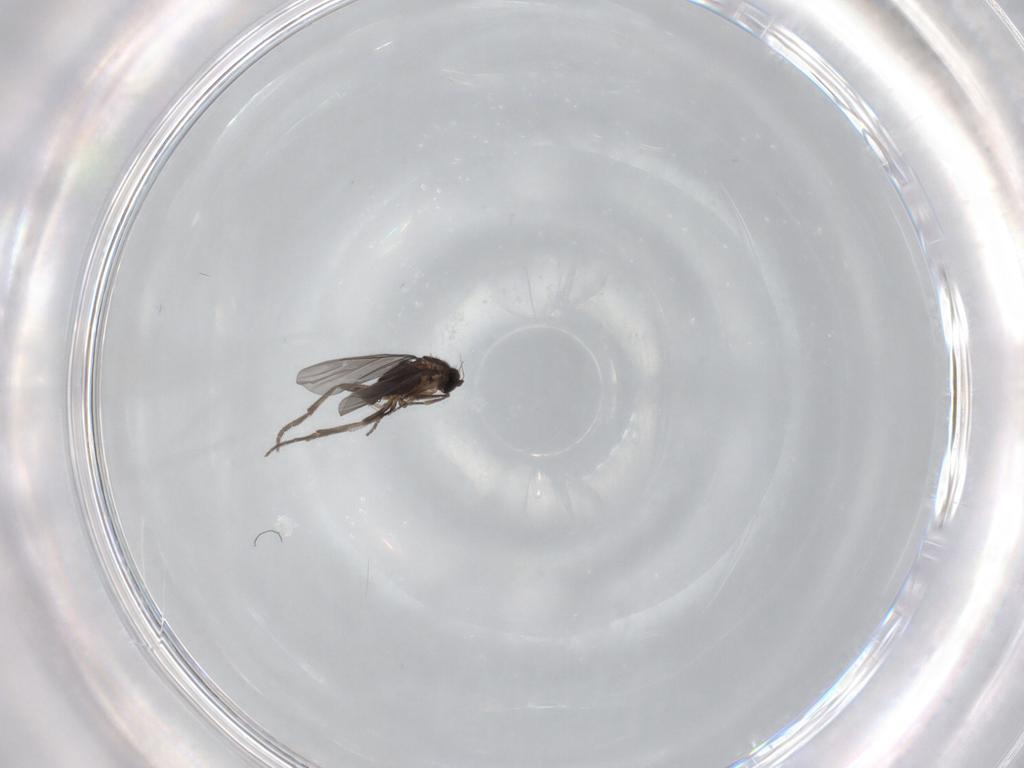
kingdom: Animalia
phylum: Arthropoda
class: Insecta
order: Diptera
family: Phoridae
